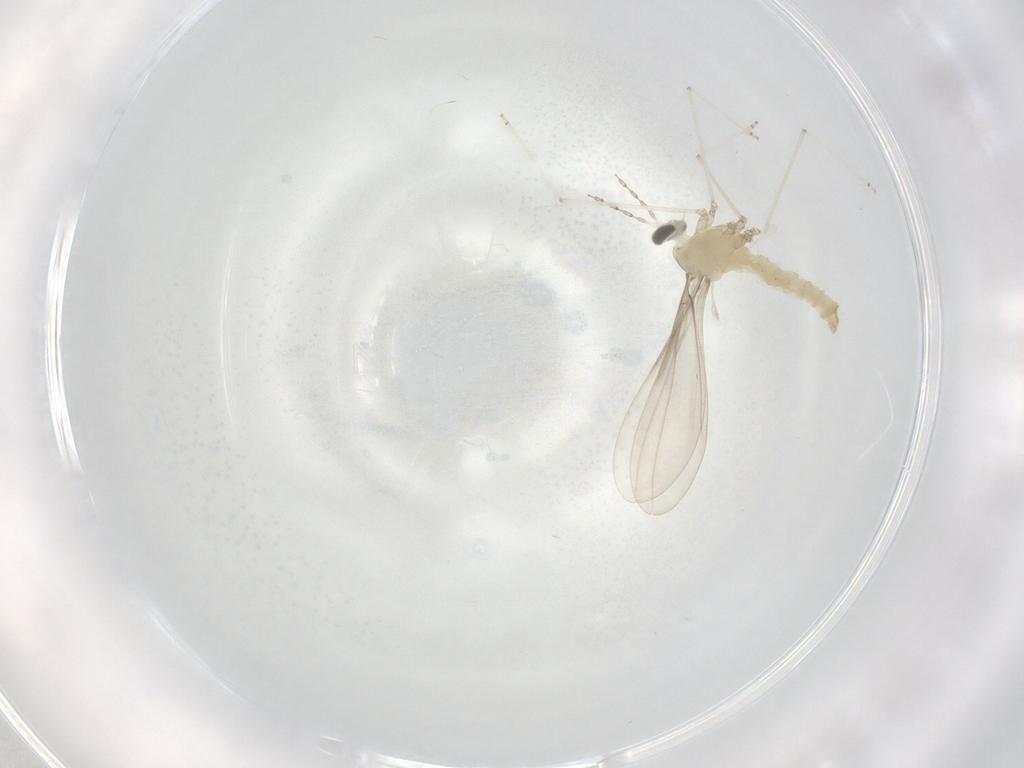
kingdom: Animalia
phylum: Arthropoda
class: Insecta
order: Diptera
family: Cecidomyiidae
